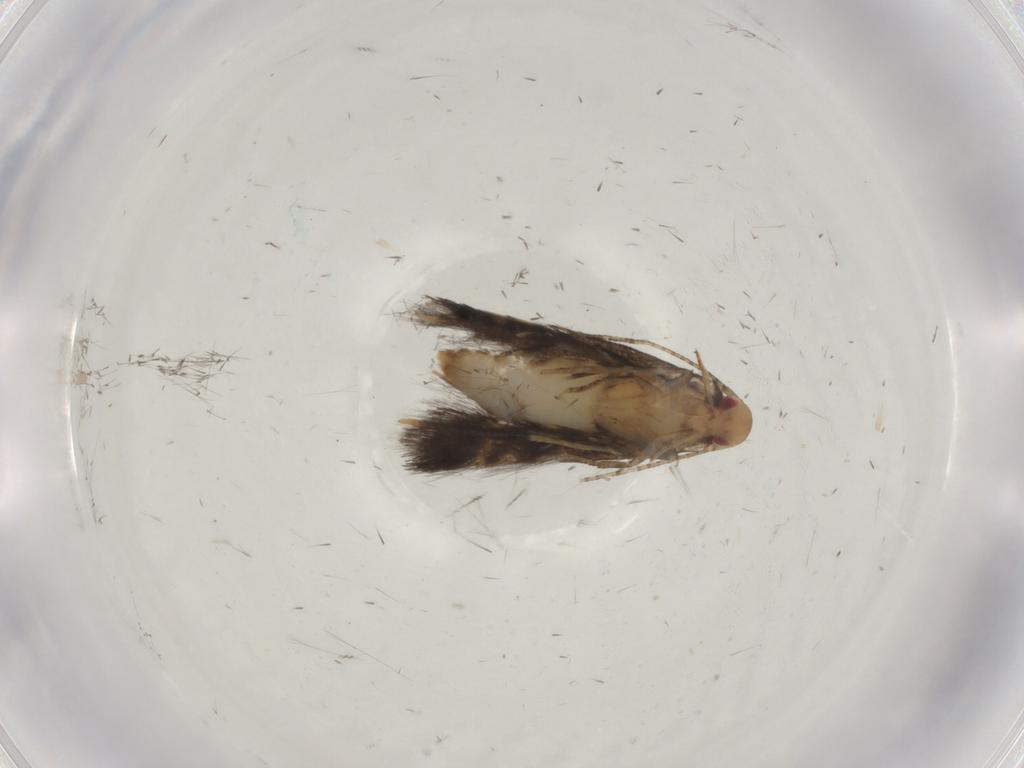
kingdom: Animalia
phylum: Arthropoda
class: Insecta
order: Lepidoptera
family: Momphidae
